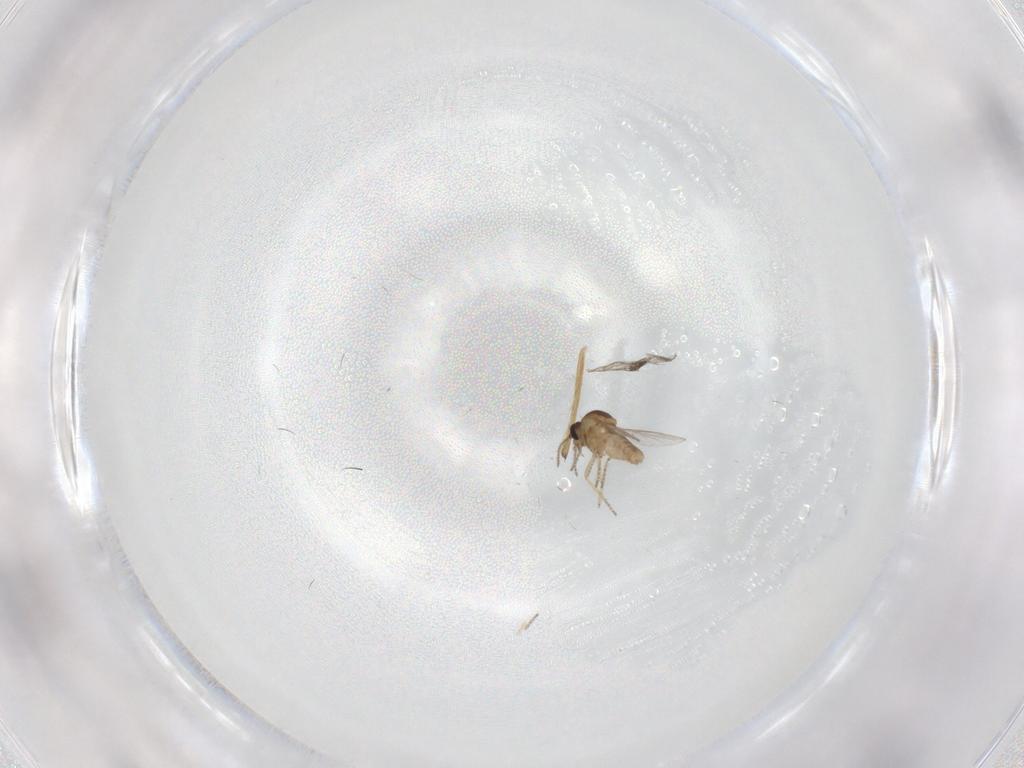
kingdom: Animalia
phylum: Arthropoda
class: Insecta
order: Diptera
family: Ceratopogonidae
